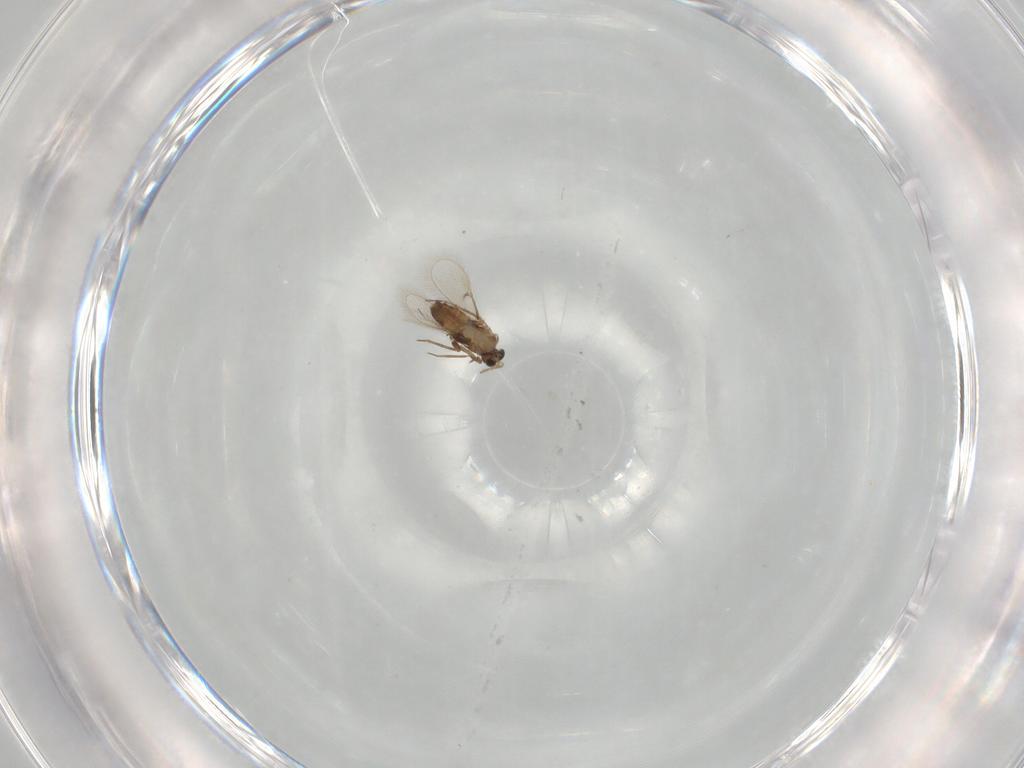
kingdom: Animalia
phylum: Arthropoda
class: Insecta
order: Hymenoptera
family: Trichogrammatidae
